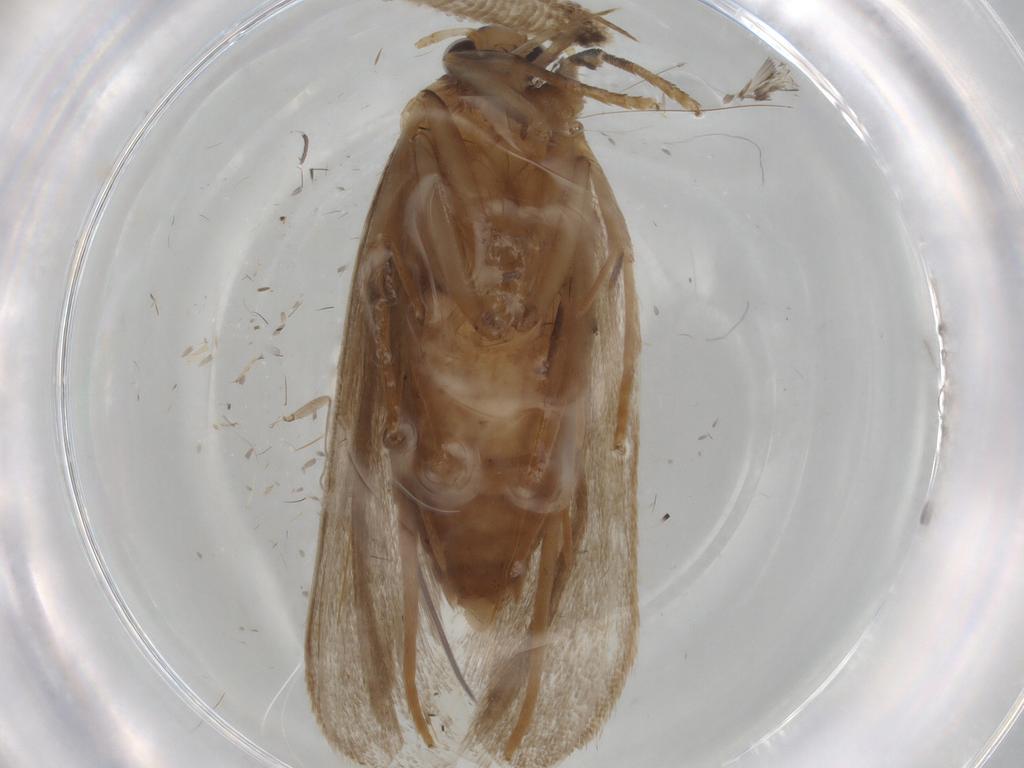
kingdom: Animalia
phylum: Arthropoda
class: Insecta
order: Lepidoptera
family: Lecithoceridae
